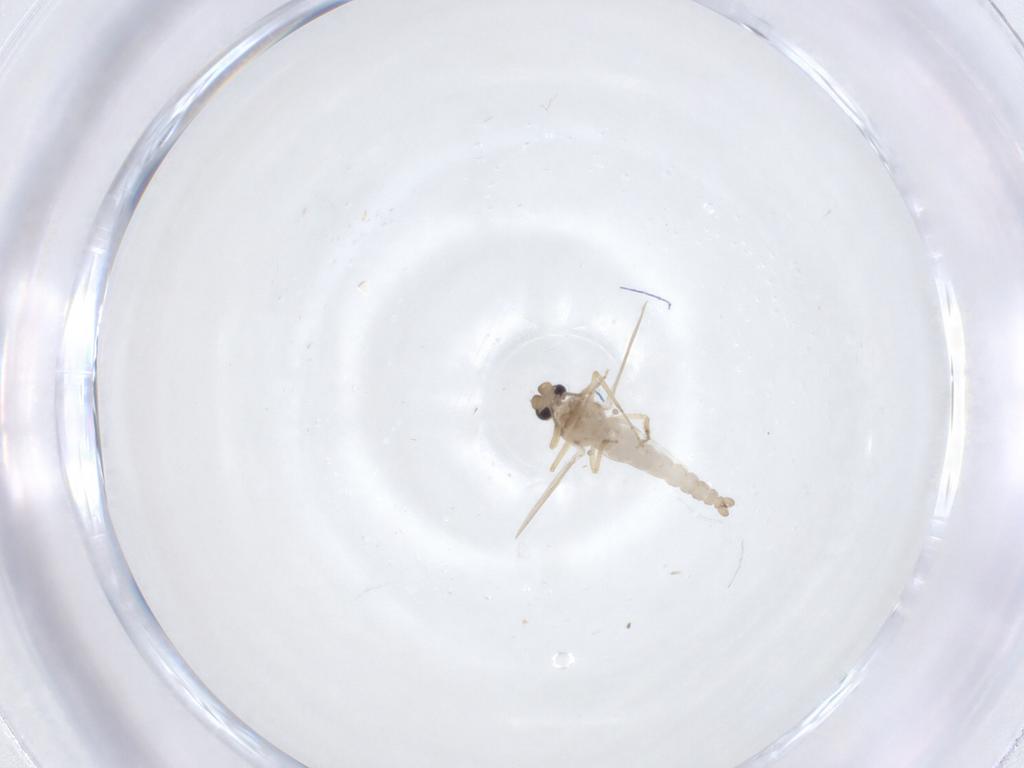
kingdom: Animalia
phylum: Arthropoda
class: Insecta
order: Diptera
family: Ceratopogonidae
